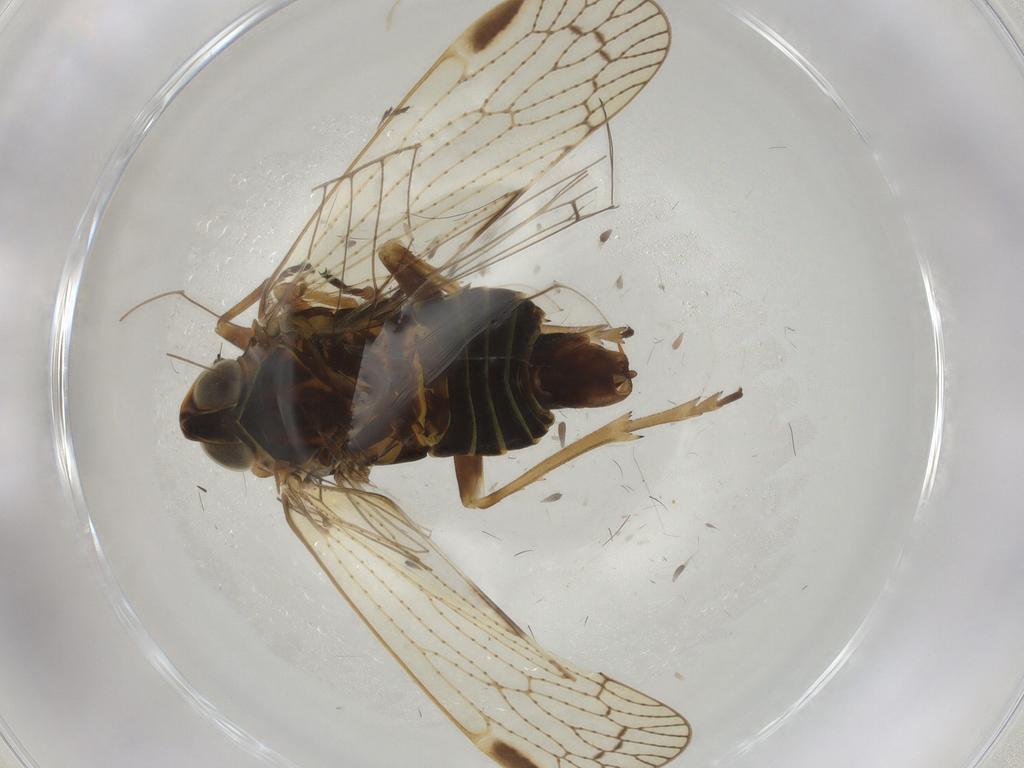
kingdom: Animalia
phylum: Arthropoda
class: Insecta
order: Hemiptera
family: Cixiidae
